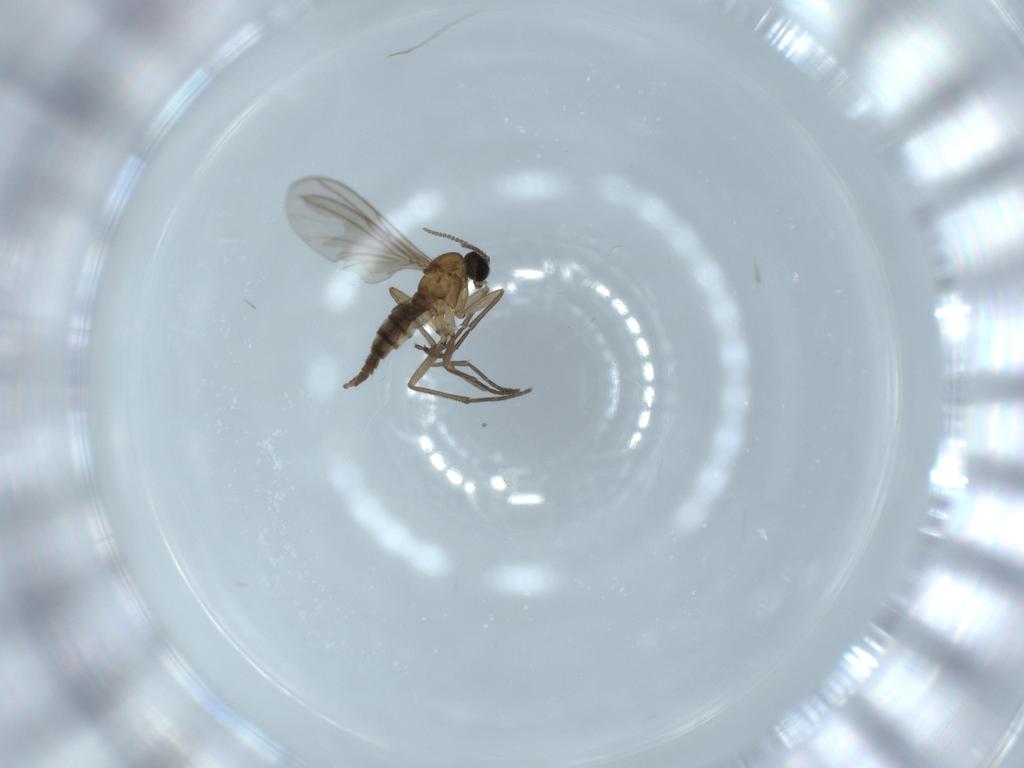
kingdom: Animalia
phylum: Arthropoda
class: Insecta
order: Diptera
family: Sciaridae
